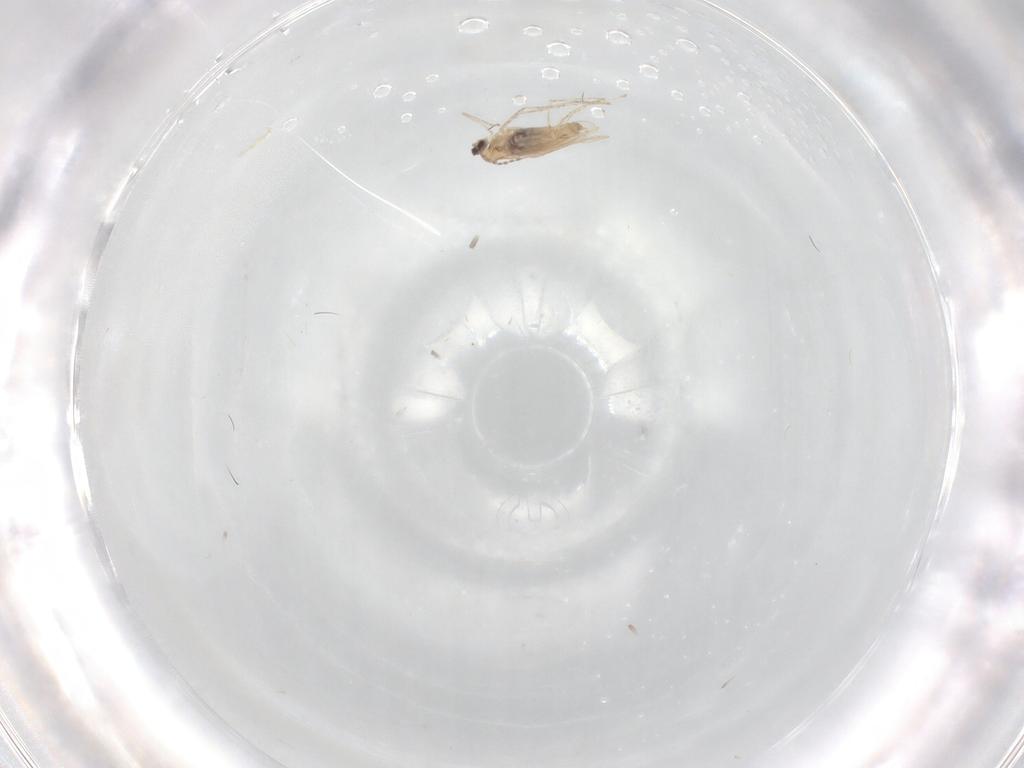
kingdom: Animalia
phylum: Arthropoda
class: Insecta
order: Diptera
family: Cecidomyiidae
